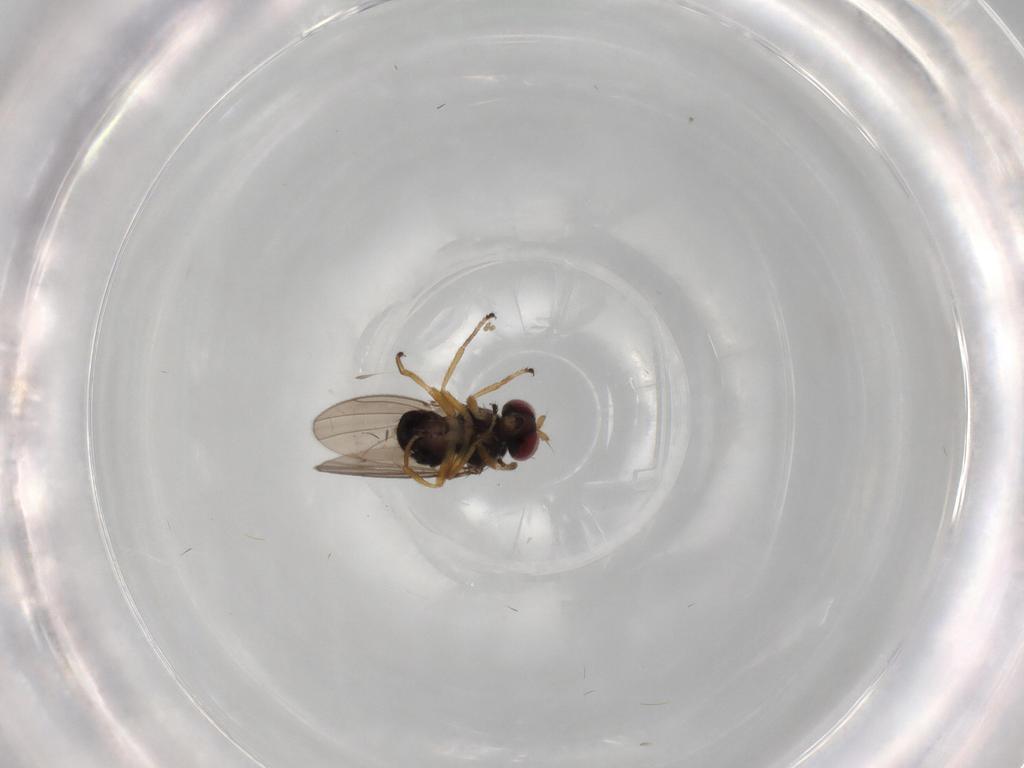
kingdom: Animalia
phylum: Arthropoda
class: Insecta
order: Diptera
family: Ephydridae
